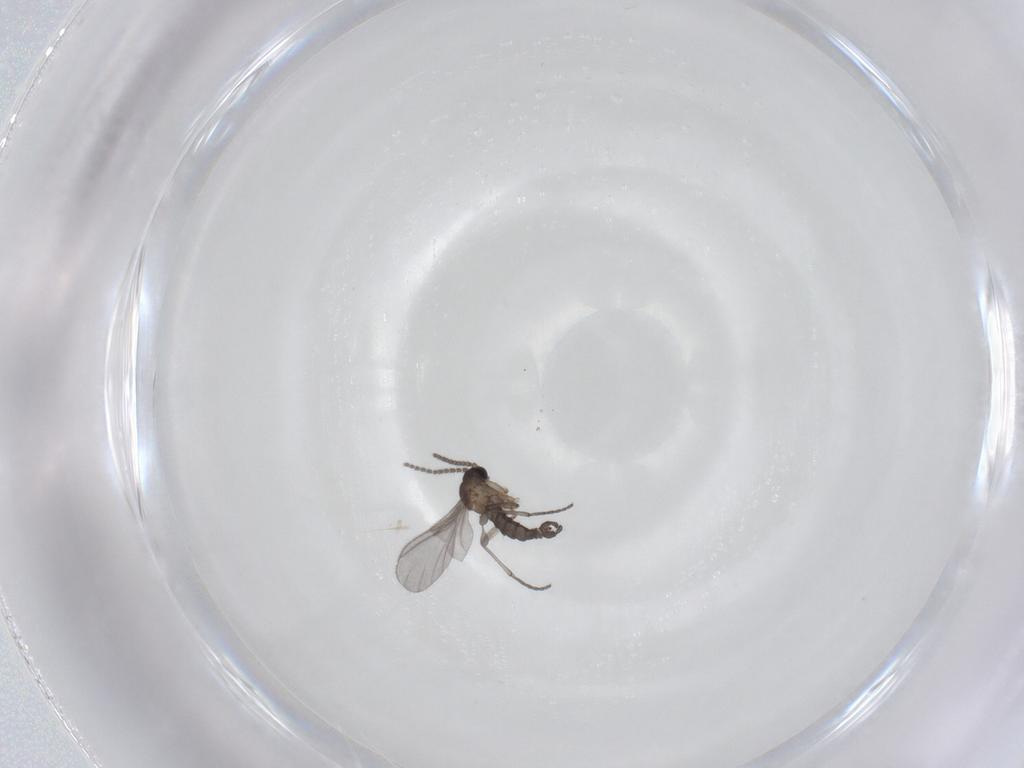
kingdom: Animalia
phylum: Arthropoda
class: Insecta
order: Diptera
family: Sciaridae
